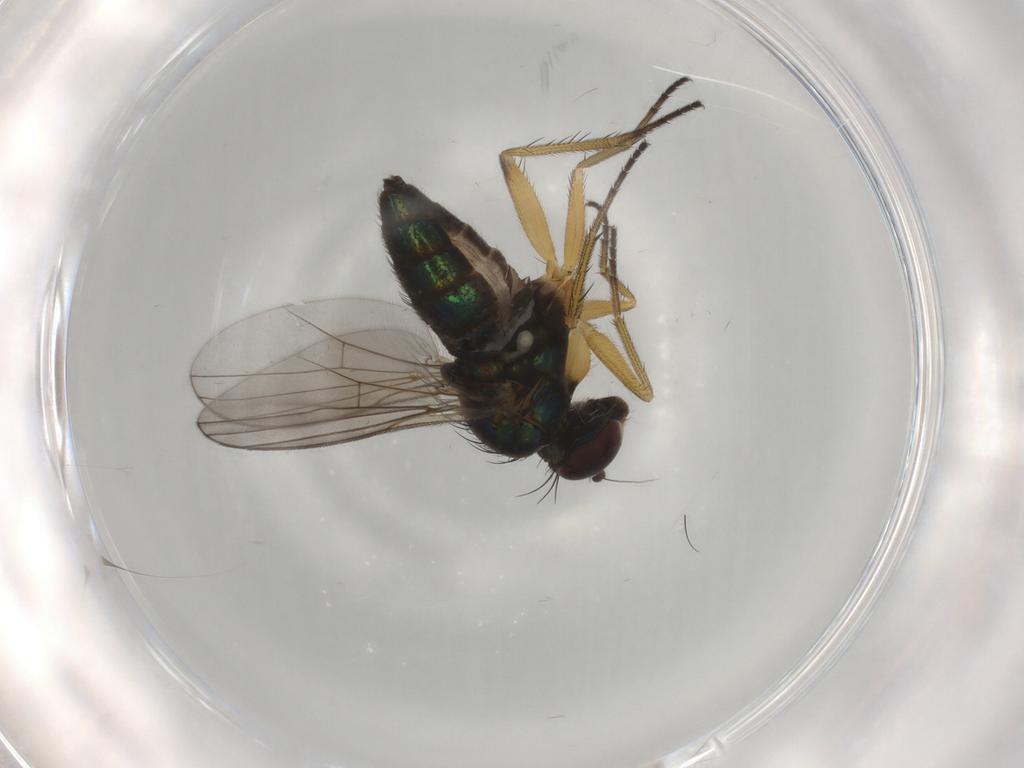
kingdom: Animalia
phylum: Arthropoda
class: Insecta
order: Diptera
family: Dolichopodidae
